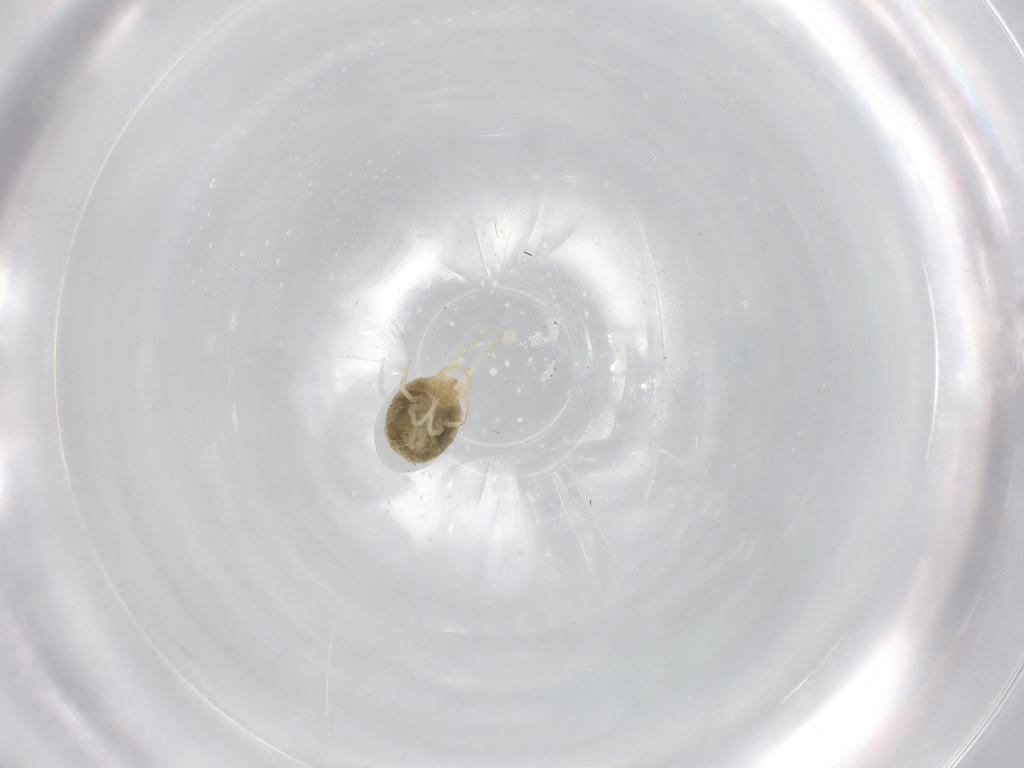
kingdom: Animalia
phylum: Arthropoda
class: Arachnida
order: Trombidiformes
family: Tetranychidae
